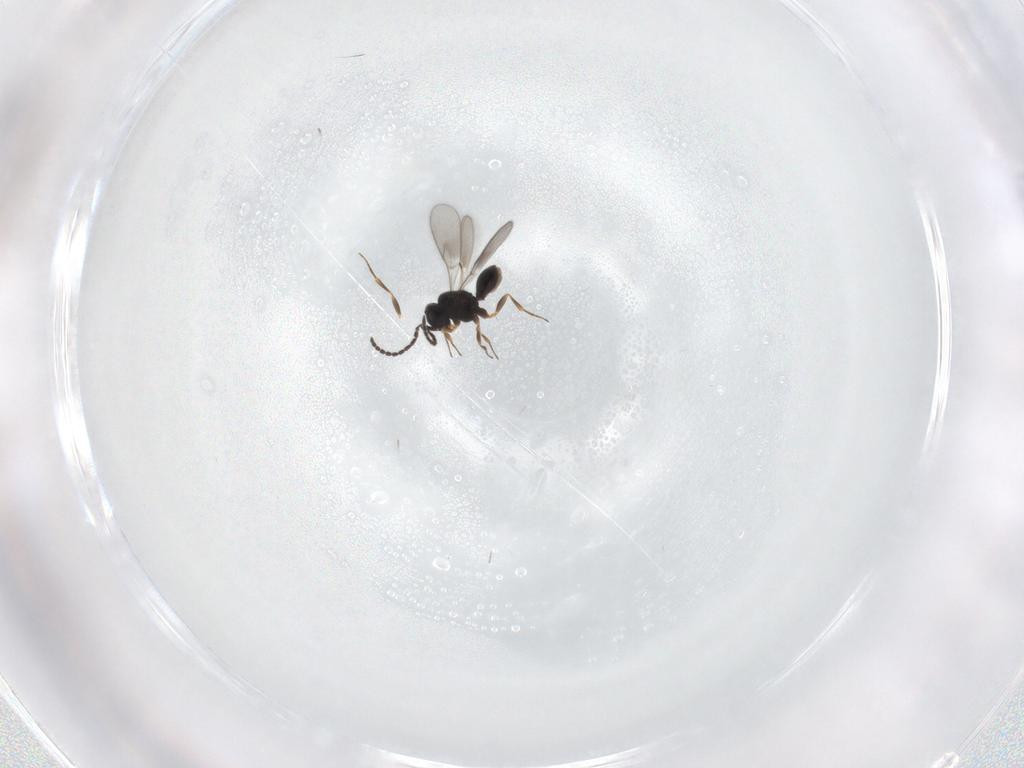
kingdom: Animalia
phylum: Arthropoda
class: Insecta
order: Hymenoptera
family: Scelionidae
